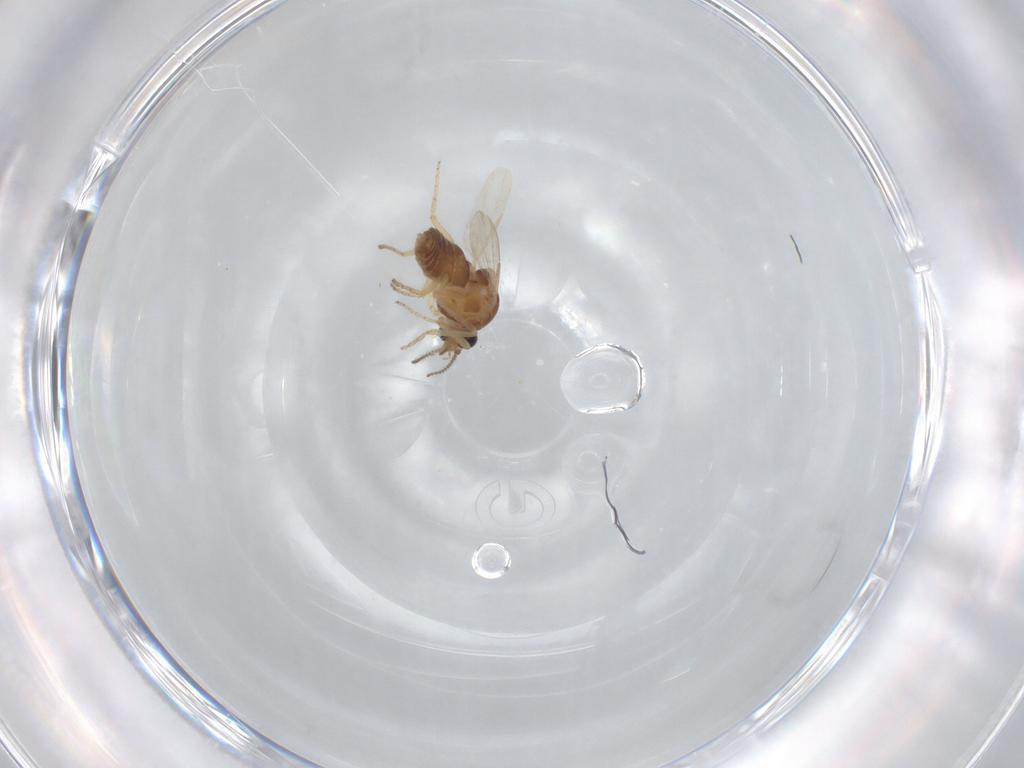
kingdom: Animalia
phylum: Arthropoda
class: Insecta
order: Diptera
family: Ceratopogonidae
